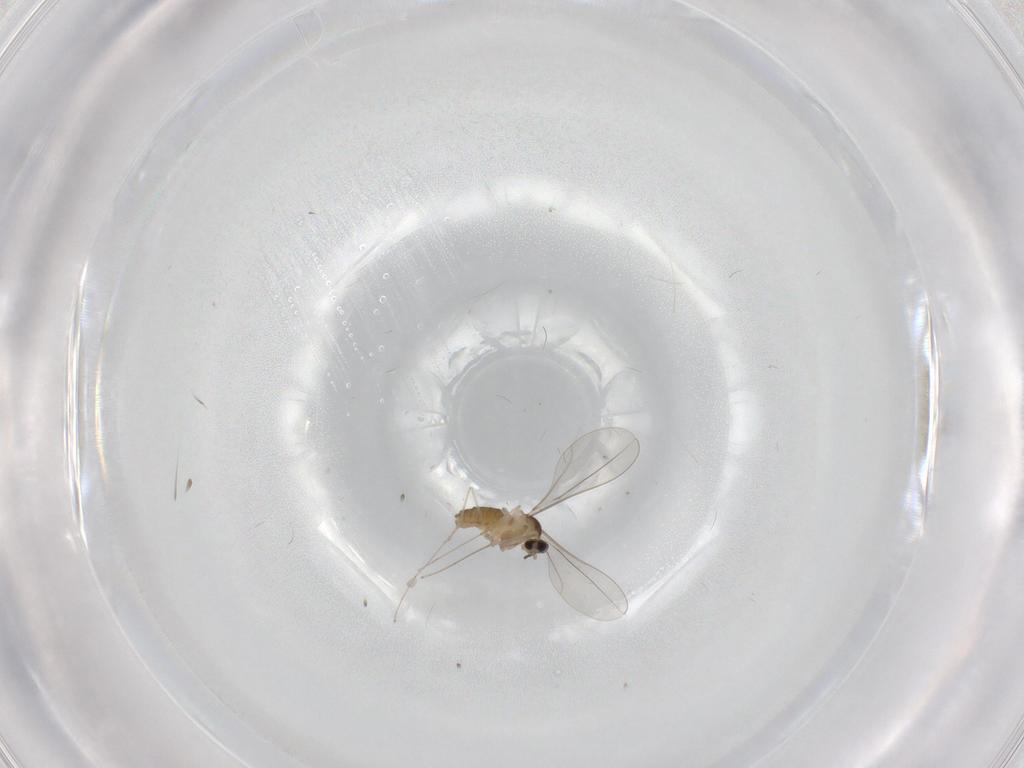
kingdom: Animalia
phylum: Arthropoda
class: Insecta
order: Diptera
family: Cecidomyiidae
